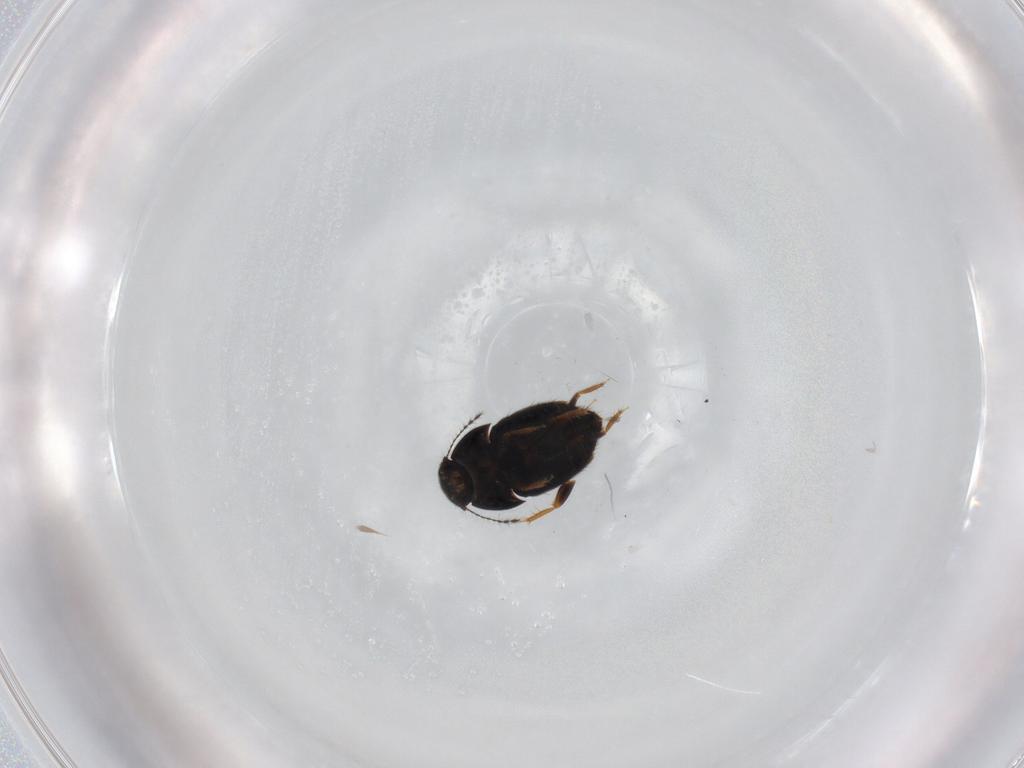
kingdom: Animalia
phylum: Arthropoda
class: Insecta
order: Coleoptera
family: Ptiliidae
